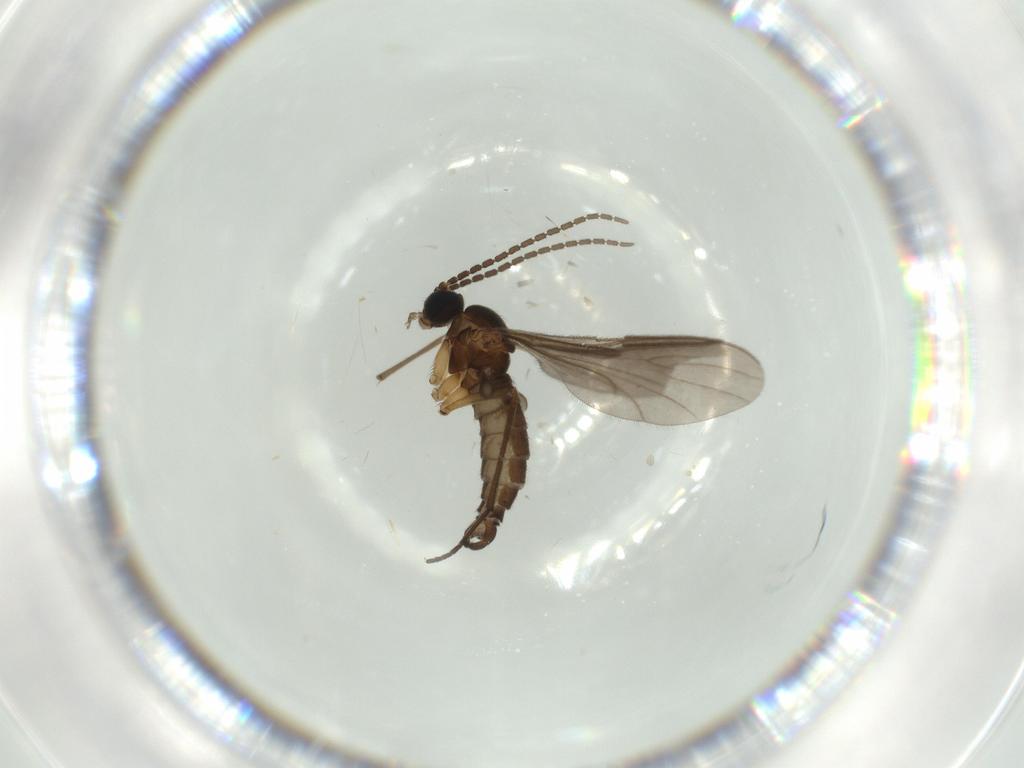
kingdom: Animalia
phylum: Arthropoda
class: Insecta
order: Diptera
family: Sciaridae
